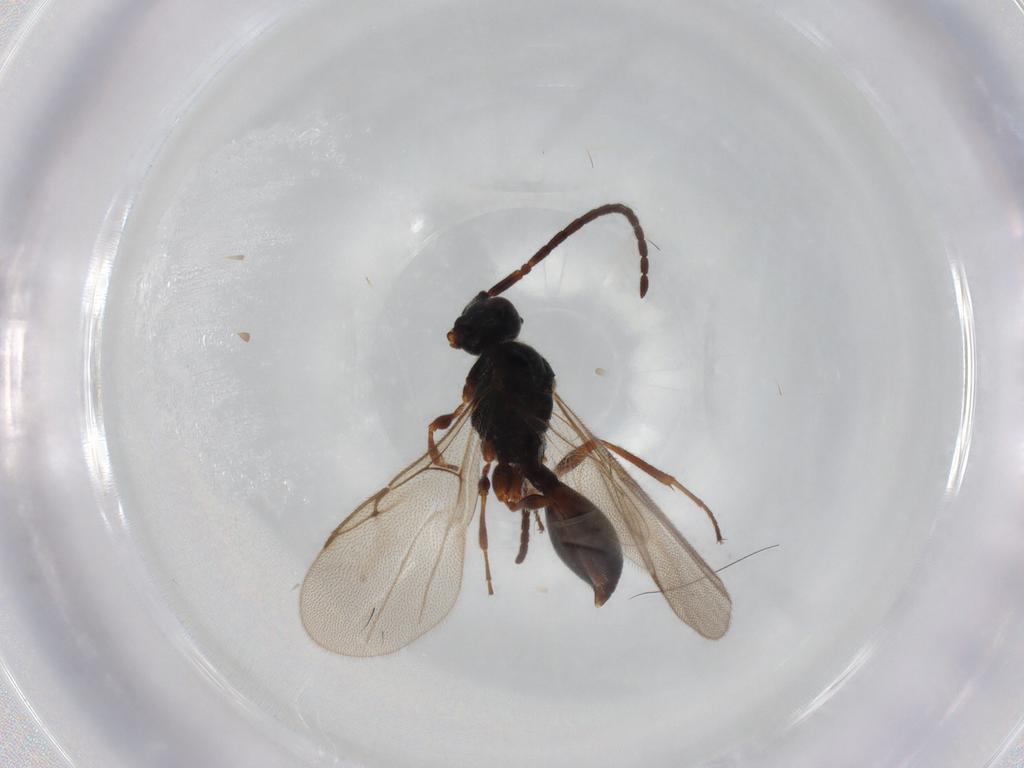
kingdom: Animalia
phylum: Arthropoda
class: Insecta
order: Hymenoptera
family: Ichneumonidae
